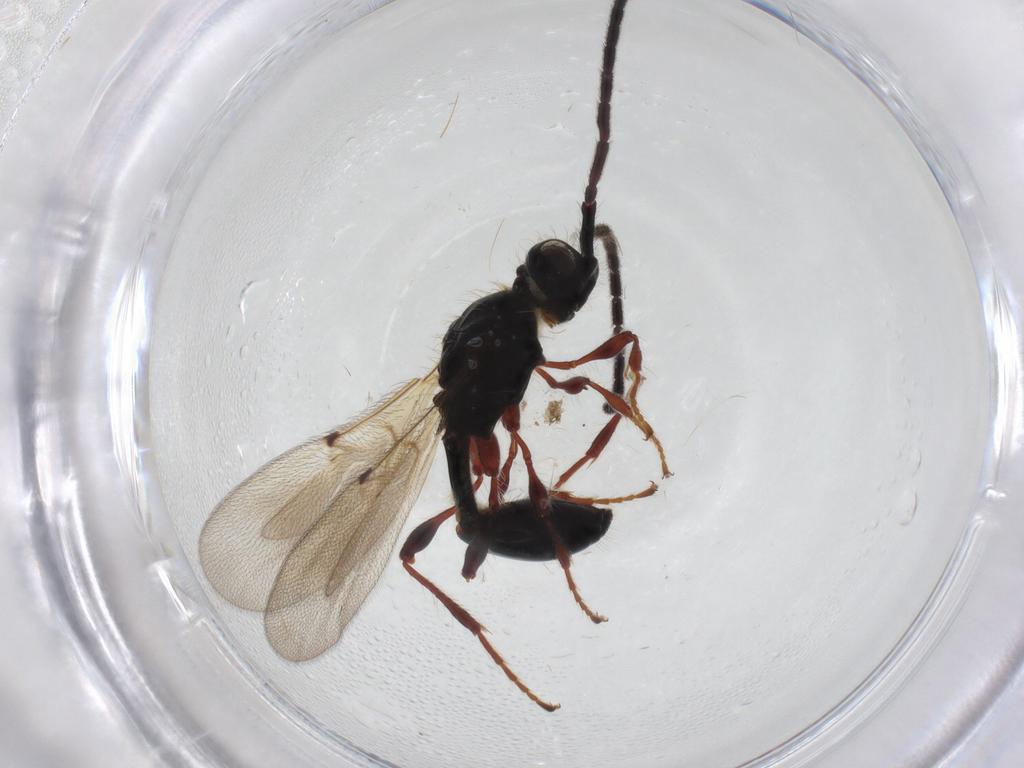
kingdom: Animalia
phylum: Arthropoda
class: Insecta
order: Hymenoptera
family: Diapriidae
